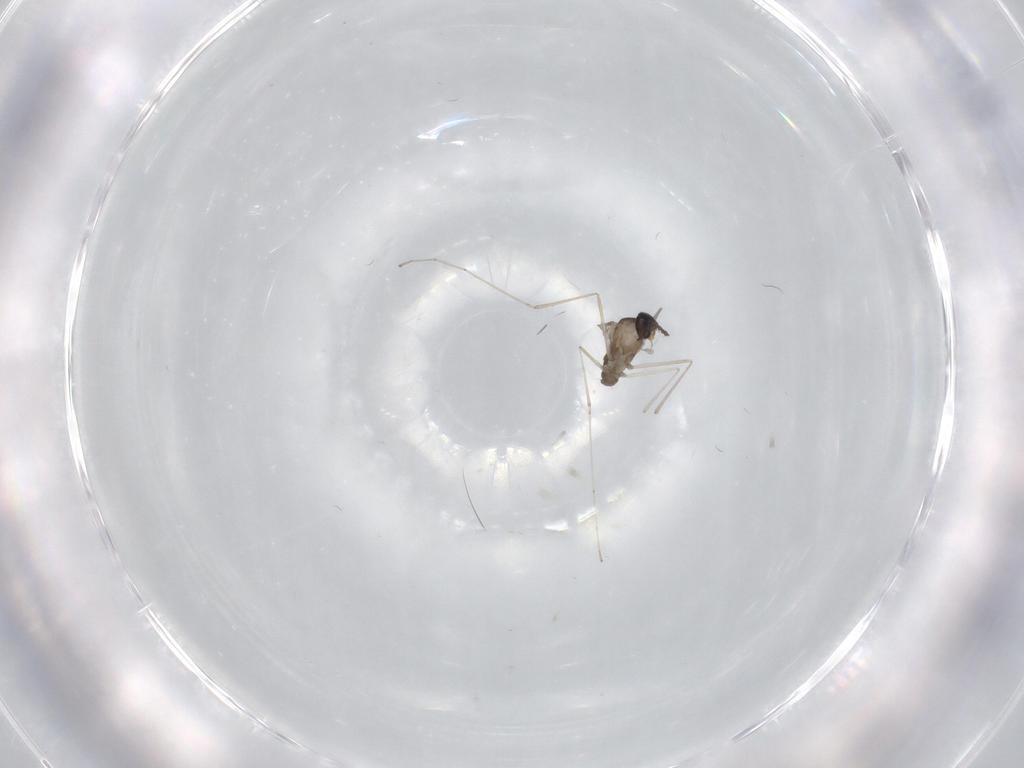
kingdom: Animalia
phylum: Arthropoda
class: Insecta
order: Diptera
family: Cecidomyiidae
